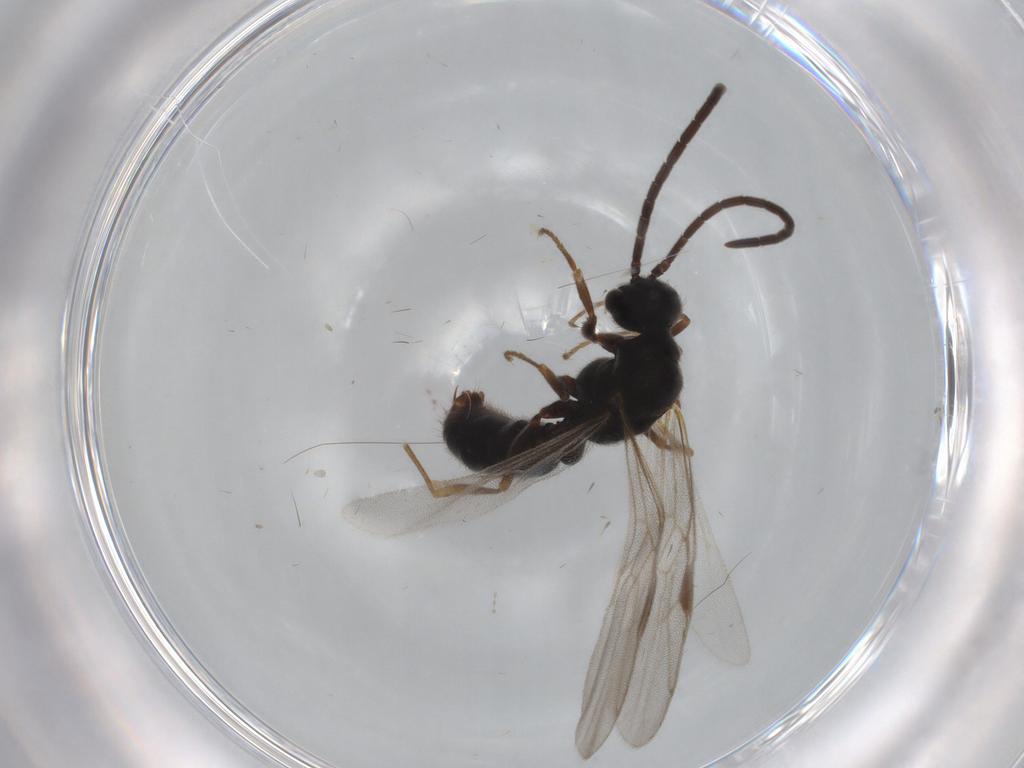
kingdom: Animalia
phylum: Arthropoda
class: Insecta
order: Hymenoptera
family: Formicidae
